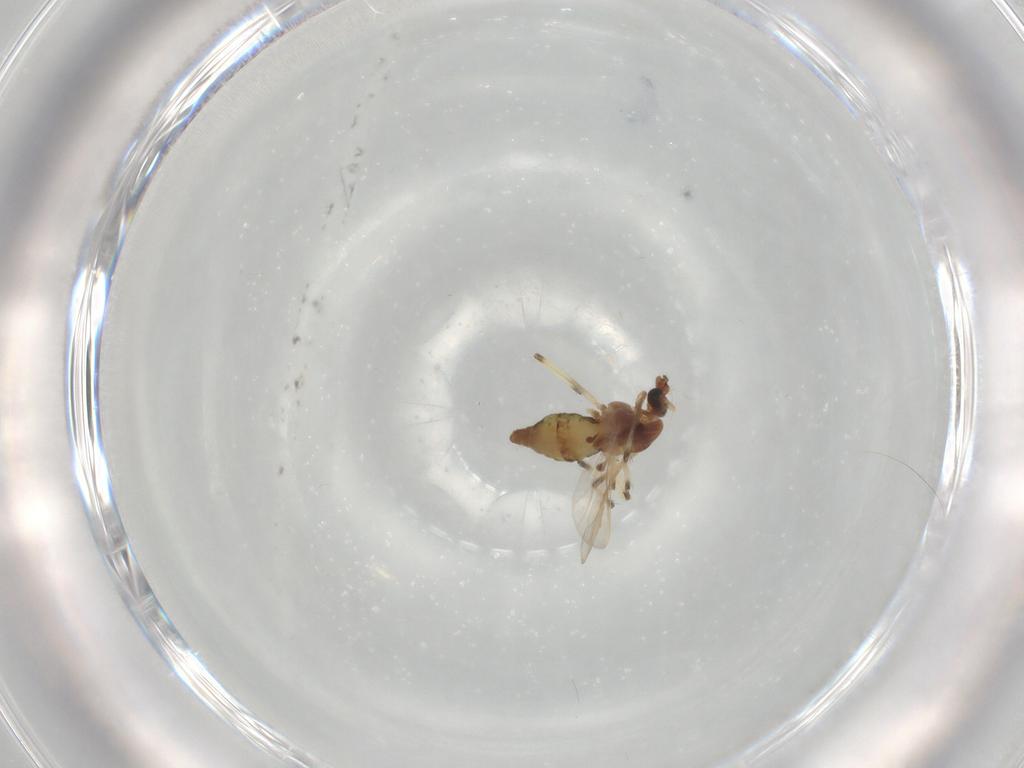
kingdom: Animalia
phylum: Arthropoda
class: Insecta
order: Diptera
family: Chironomidae
